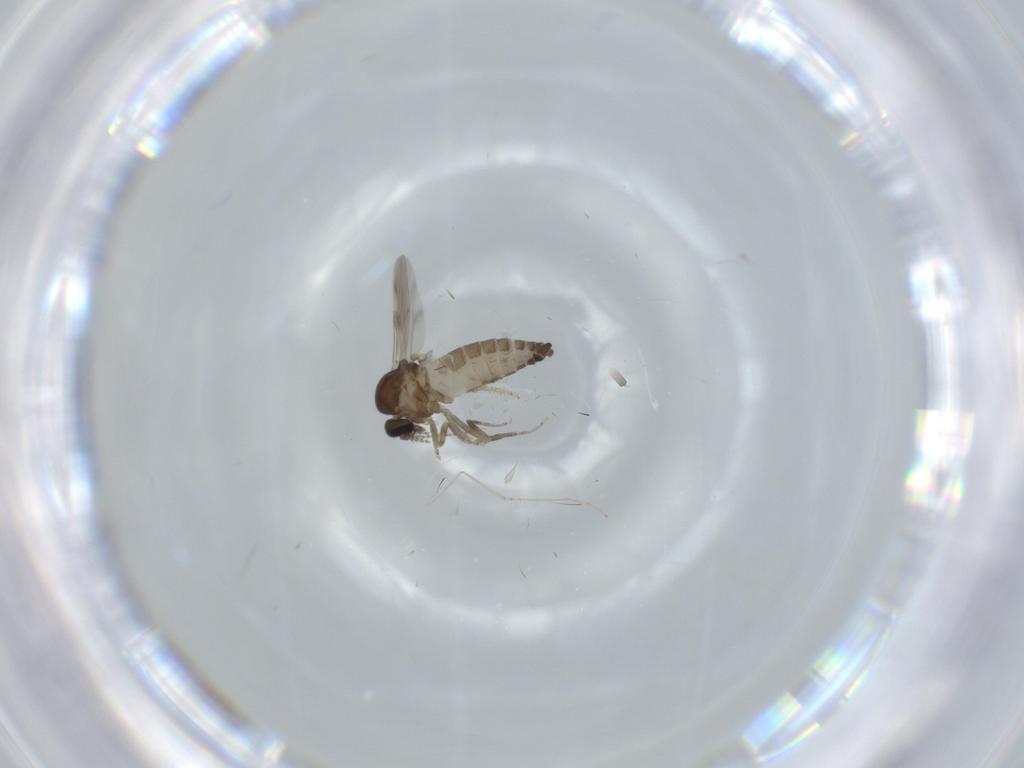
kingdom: Animalia
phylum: Arthropoda
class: Insecta
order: Diptera
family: Ceratopogonidae
